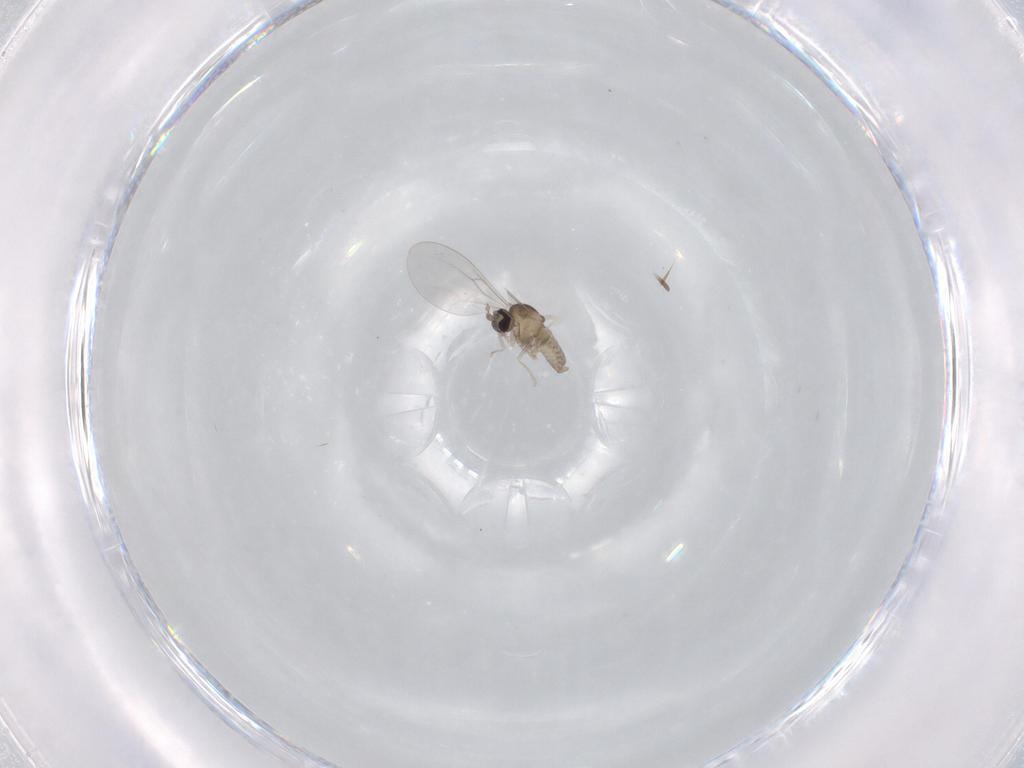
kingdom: Animalia
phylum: Arthropoda
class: Insecta
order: Diptera
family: Cecidomyiidae
